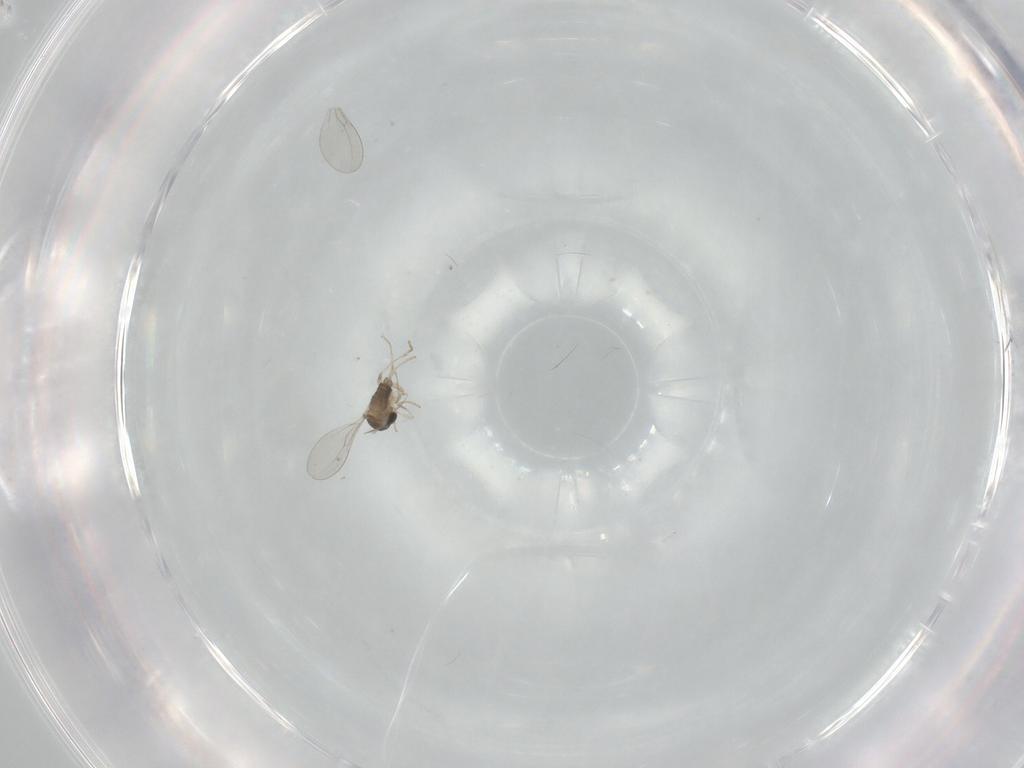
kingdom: Animalia
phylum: Arthropoda
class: Insecta
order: Diptera
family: Cecidomyiidae
